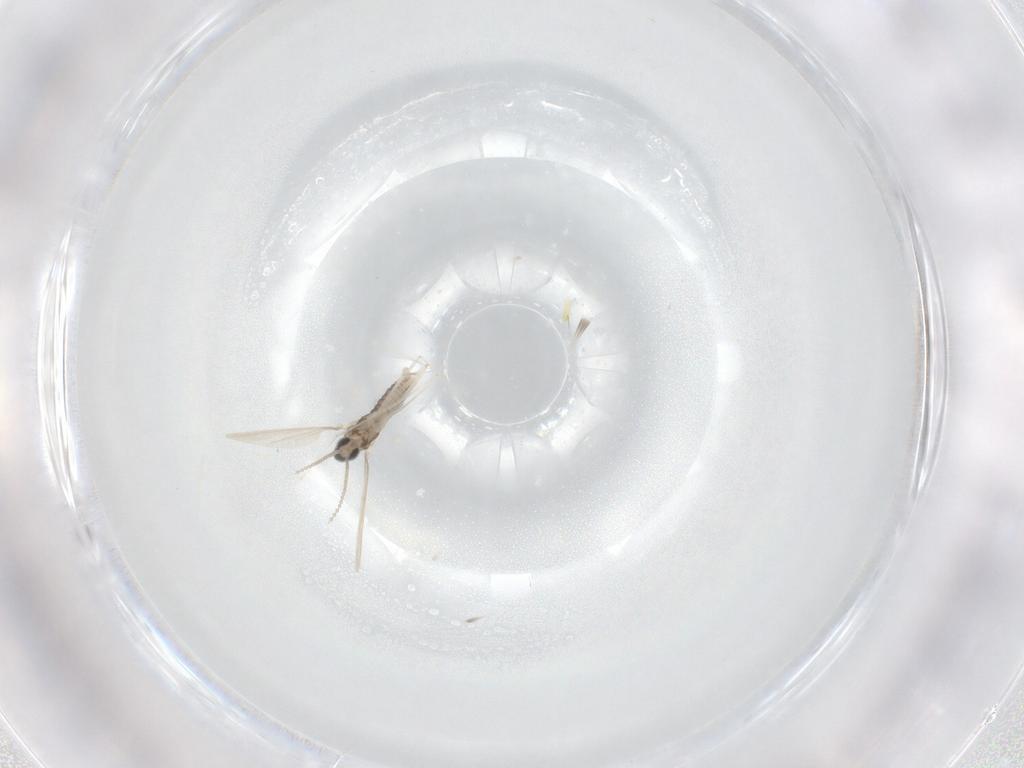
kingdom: Animalia
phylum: Arthropoda
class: Insecta
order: Diptera
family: Cecidomyiidae
